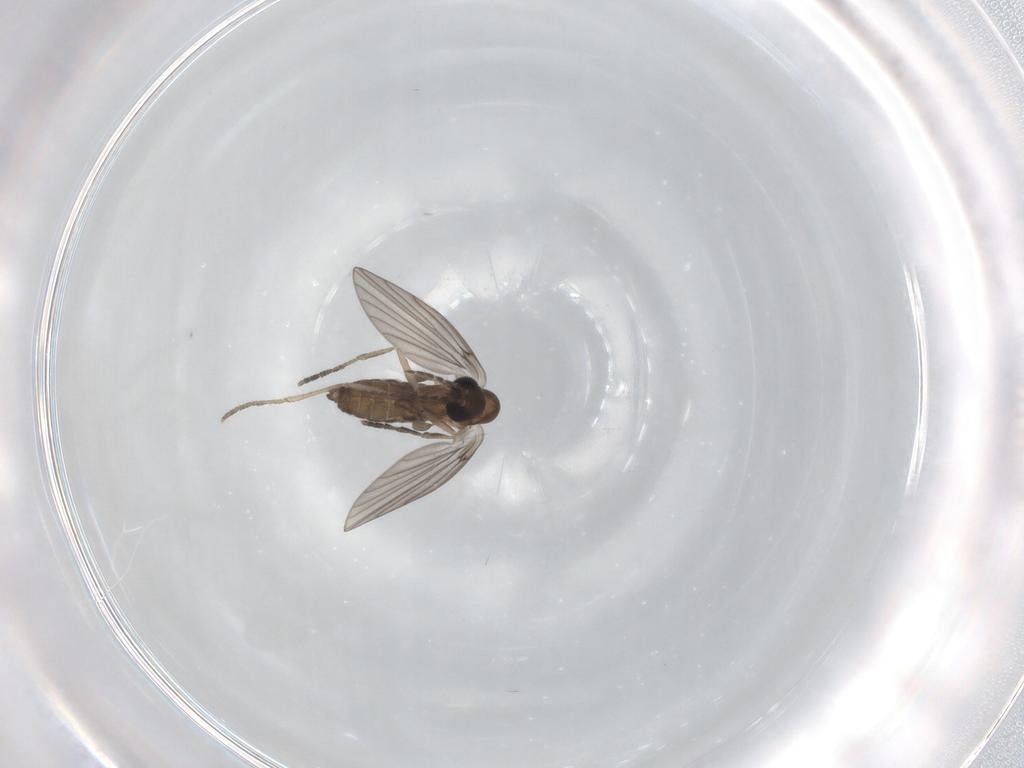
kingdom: Animalia
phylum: Arthropoda
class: Insecta
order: Diptera
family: Psychodidae
